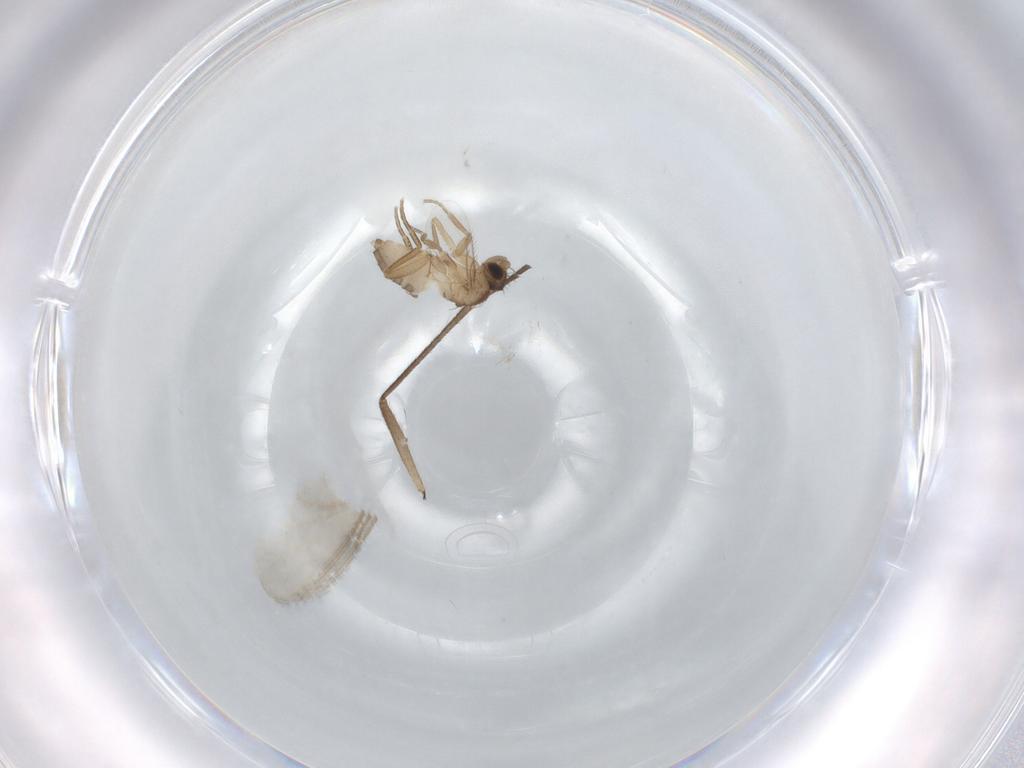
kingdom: Animalia
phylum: Arthropoda
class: Insecta
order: Diptera
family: Phoridae
